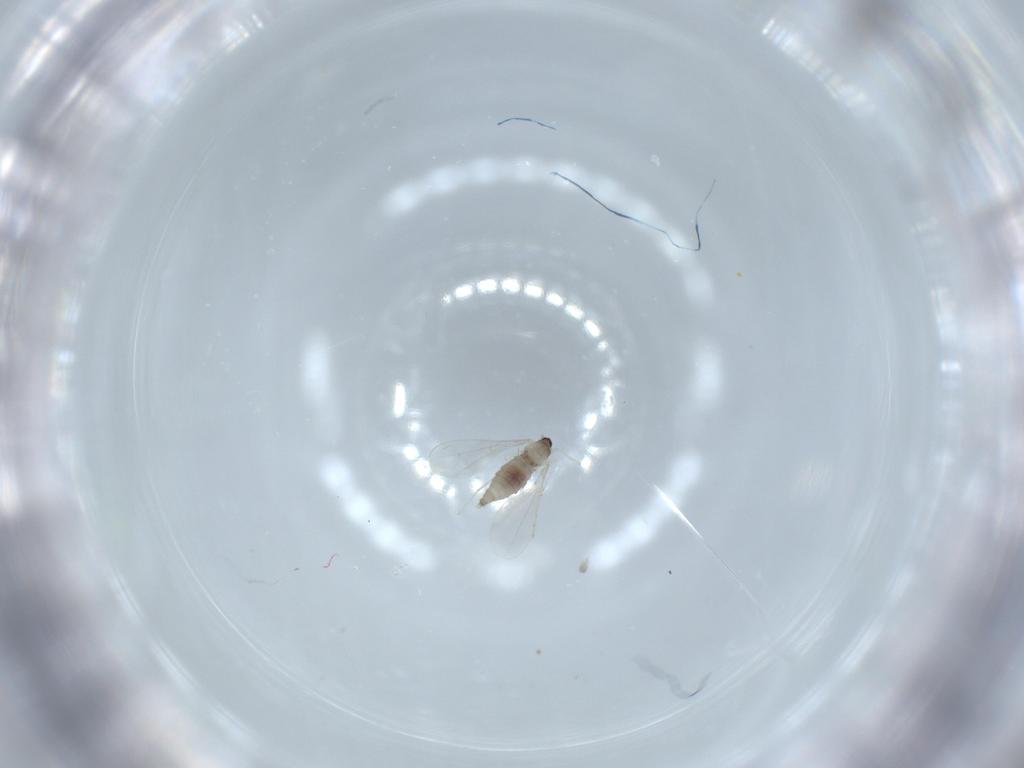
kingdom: Animalia
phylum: Arthropoda
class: Insecta
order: Diptera
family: Cecidomyiidae
